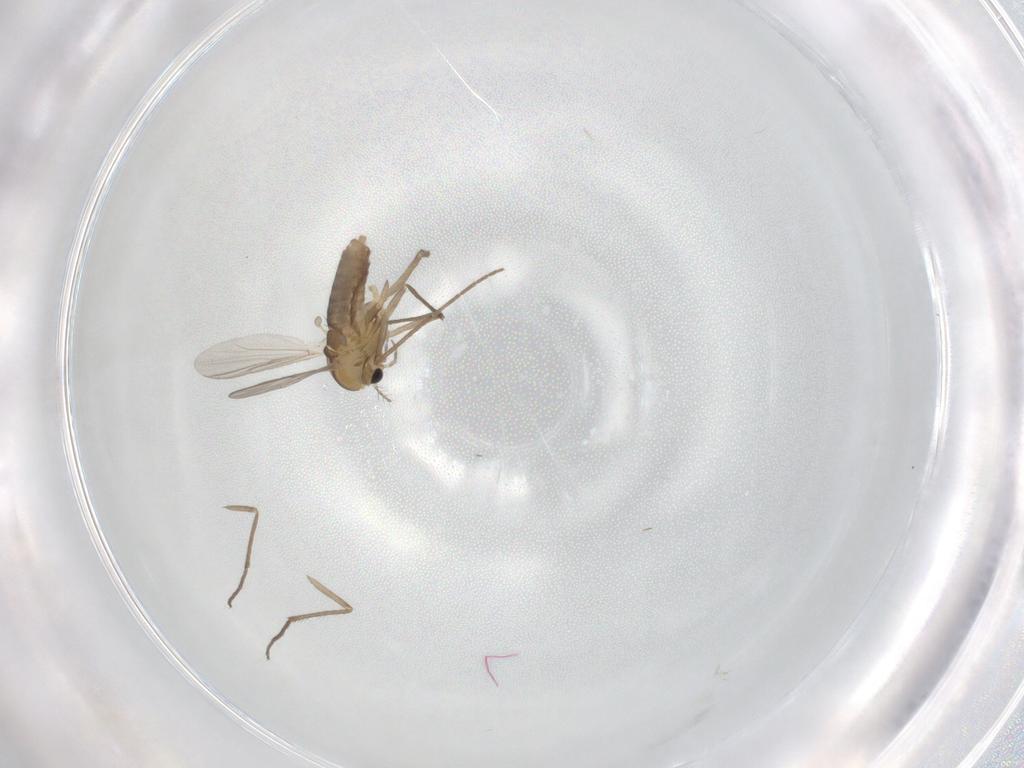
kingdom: Animalia
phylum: Arthropoda
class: Insecta
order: Diptera
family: Chironomidae
